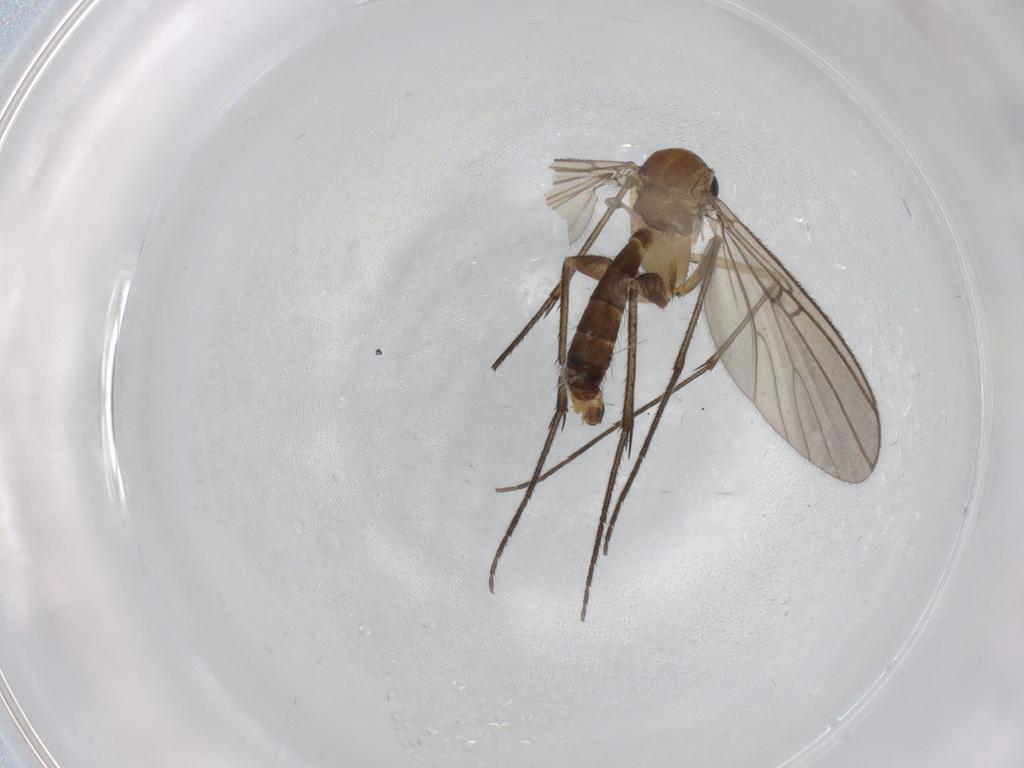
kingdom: Animalia
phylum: Arthropoda
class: Insecta
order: Diptera
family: Mycetophilidae
